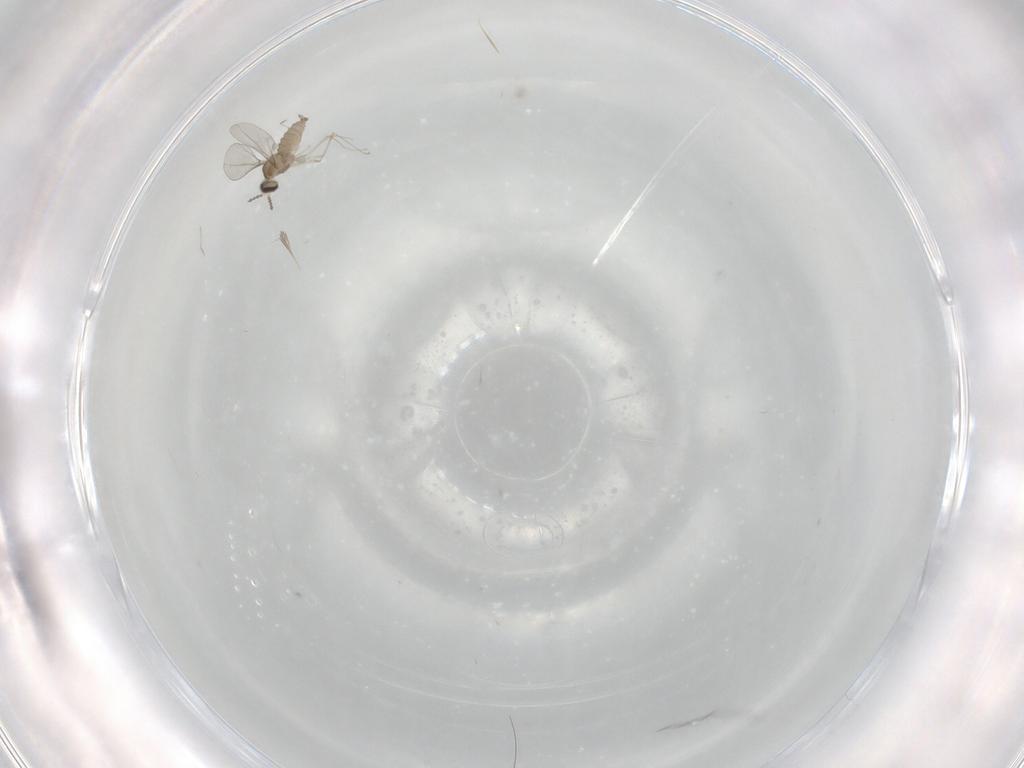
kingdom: Animalia
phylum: Arthropoda
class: Insecta
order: Diptera
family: Cecidomyiidae
